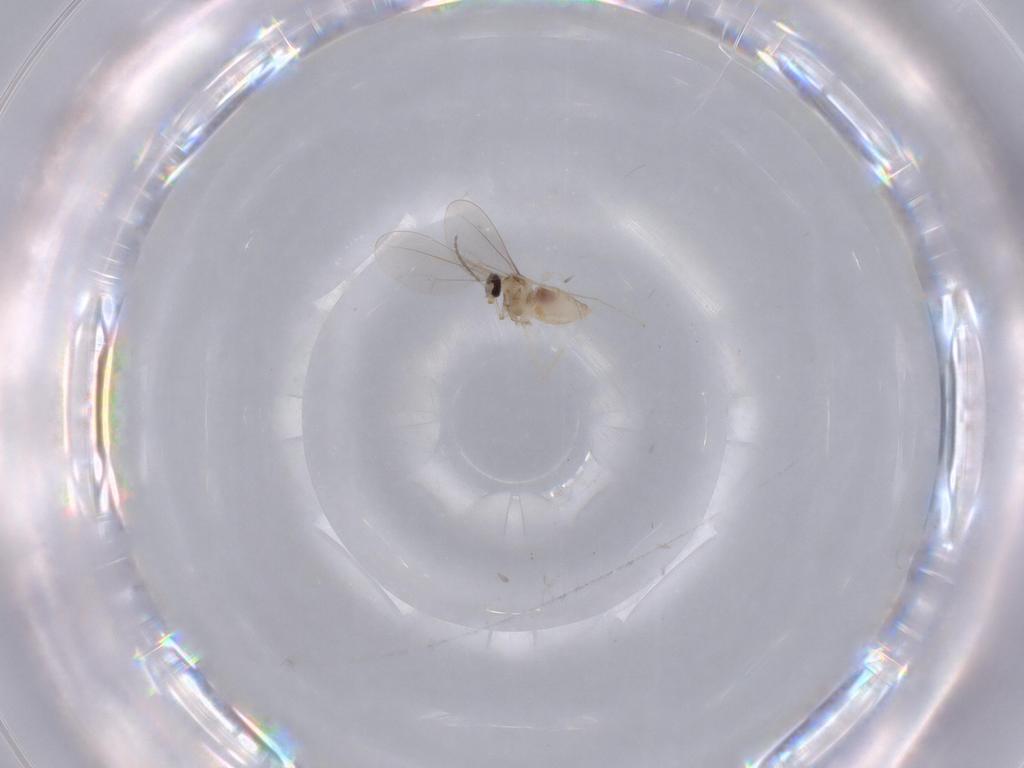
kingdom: Animalia
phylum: Arthropoda
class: Insecta
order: Diptera
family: Cecidomyiidae
